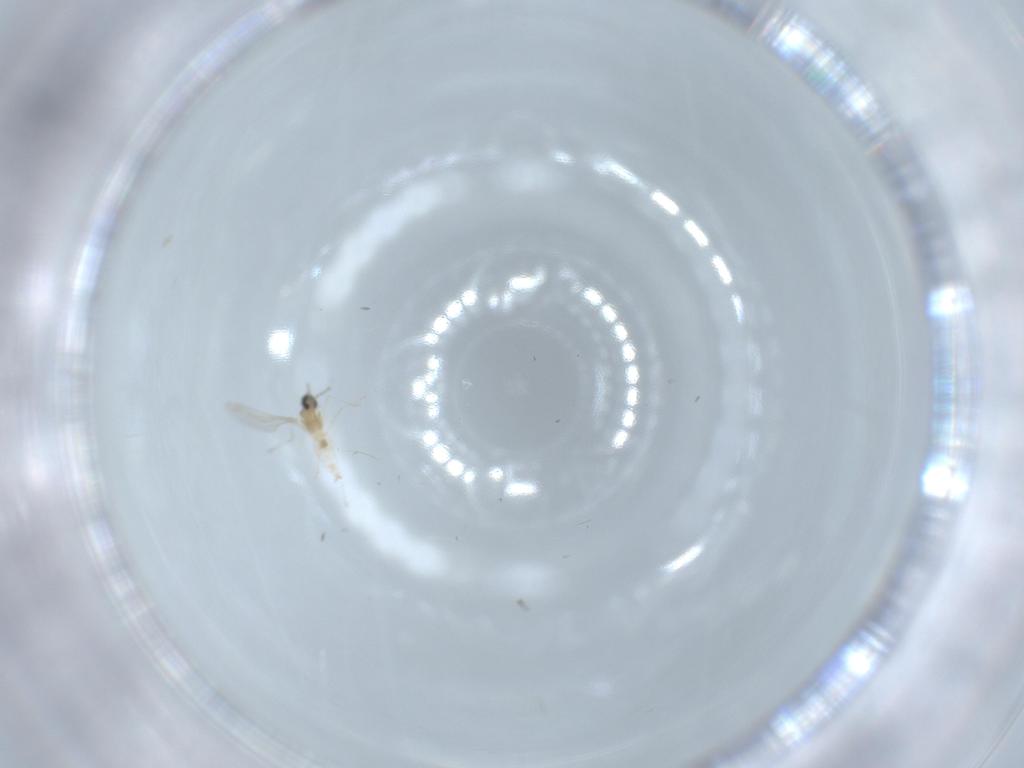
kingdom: Animalia
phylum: Arthropoda
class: Insecta
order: Diptera
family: Cecidomyiidae
